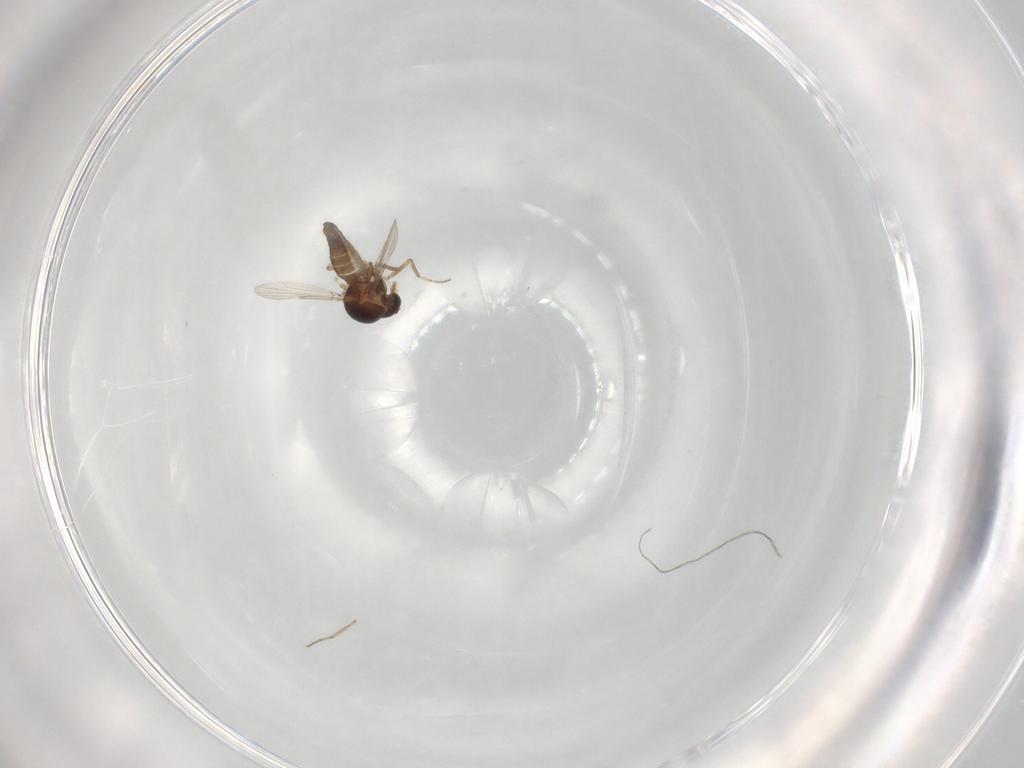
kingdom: Animalia
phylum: Arthropoda
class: Insecta
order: Diptera
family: Ceratopogonidae
